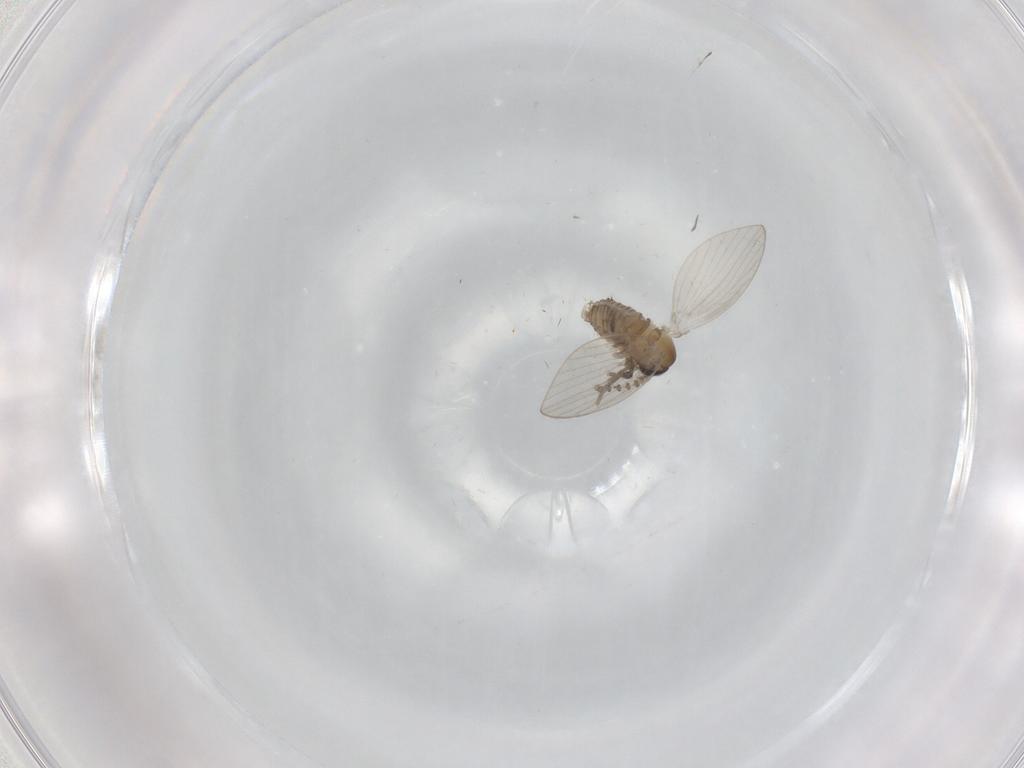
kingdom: Animalia
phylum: Arthropoda
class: Insecta
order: Diptera
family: Dolichopodidae
